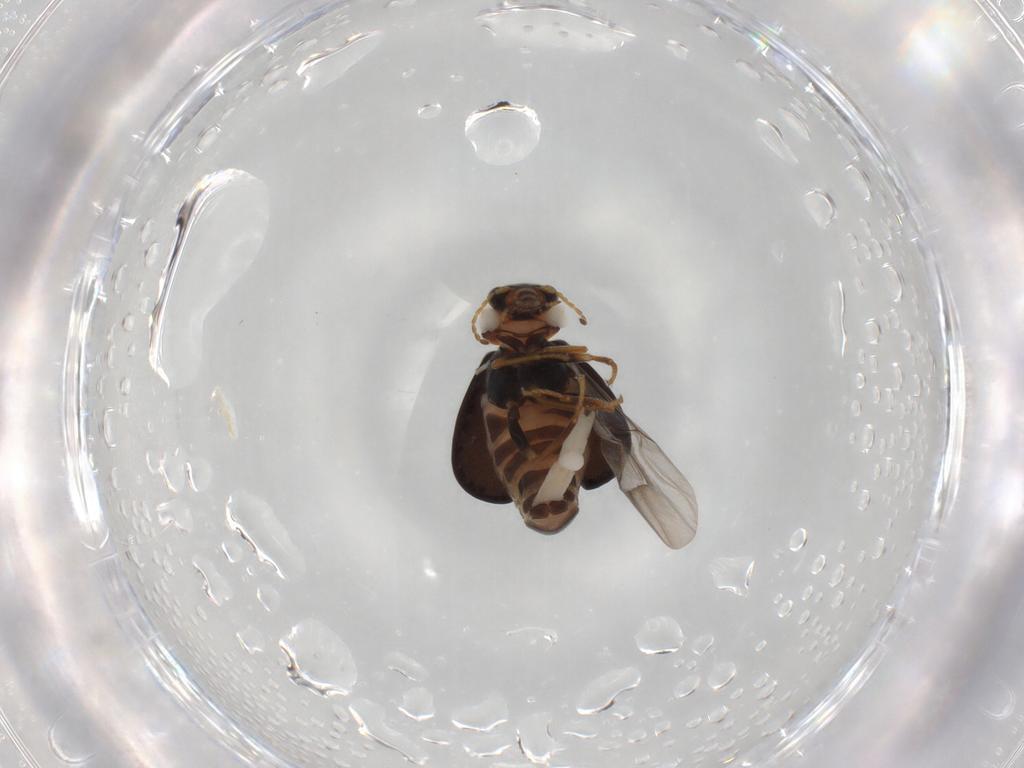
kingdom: Animalia
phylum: Arthropoda
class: Insecta
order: Coleoptera
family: Melyridae
